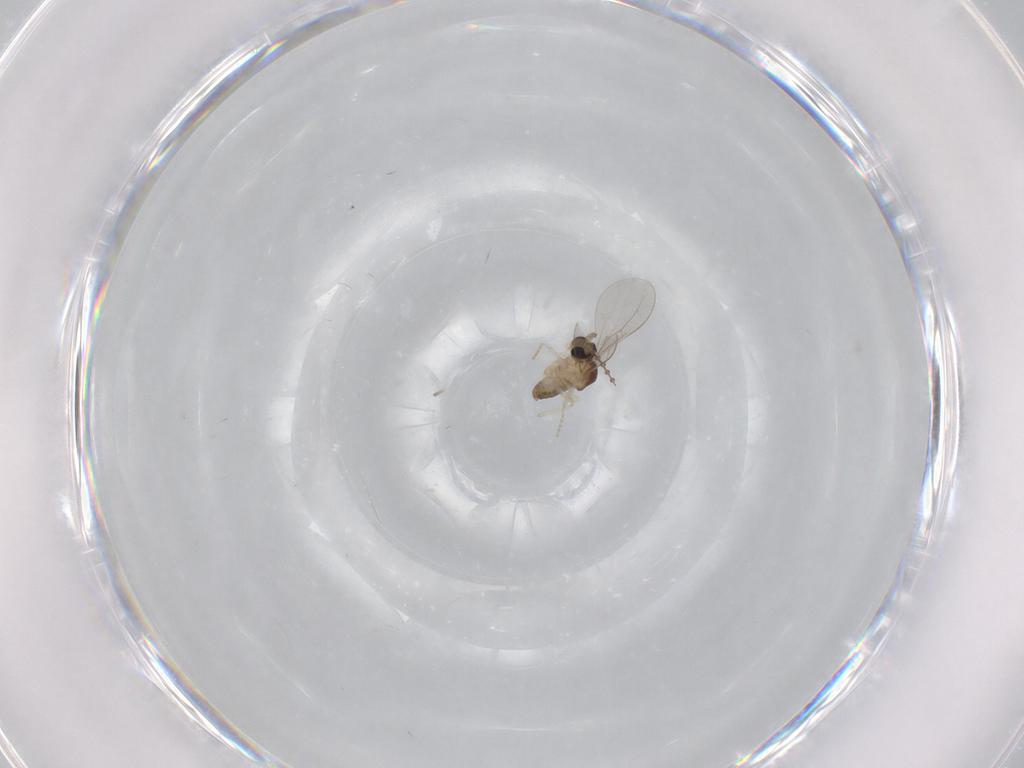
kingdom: Animalia
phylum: Arthropoda
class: Insecta
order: Diptera
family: Cecidomyiidae
